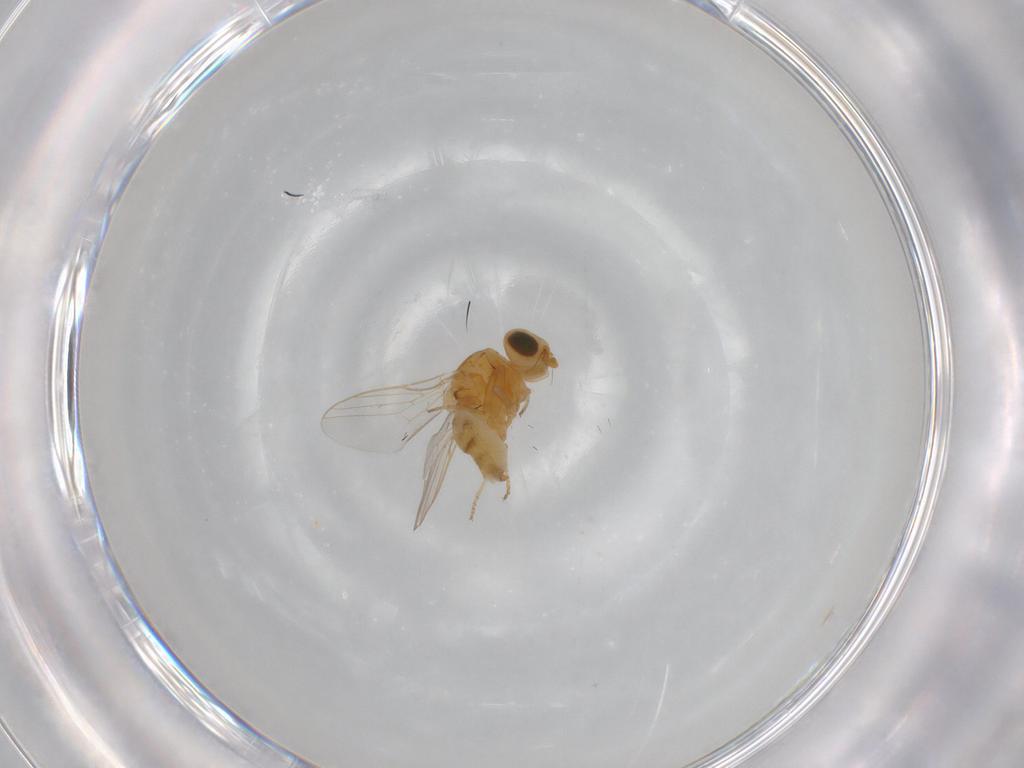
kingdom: Animalia
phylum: Arthropoda
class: Insecta
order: Diptera
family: Chloropidae
